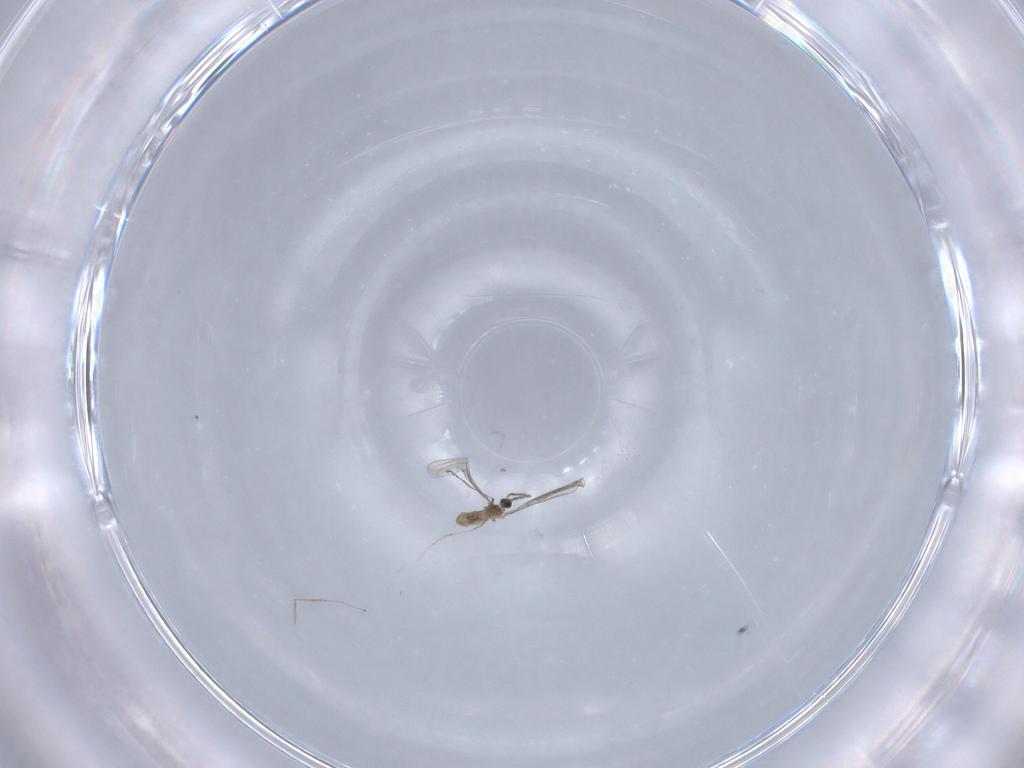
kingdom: Animalia
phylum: Arthropoda
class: Insecta
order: Diptera
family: Cecidomyiidae
